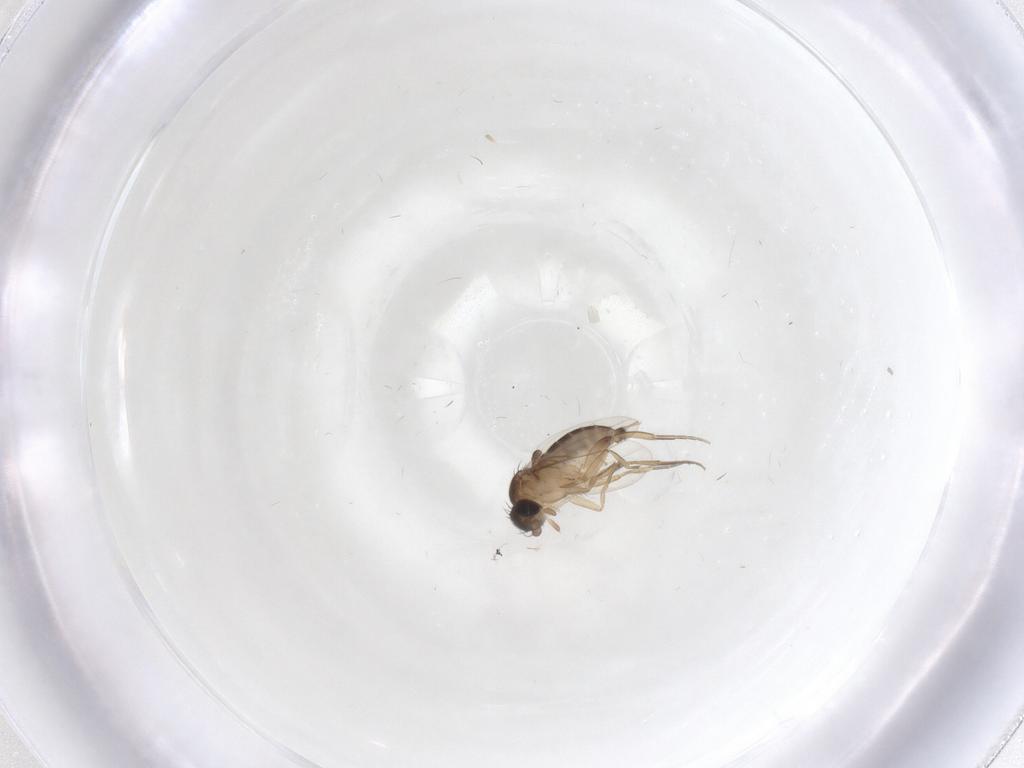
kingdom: Animalia
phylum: Arthropoda
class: Insecta
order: Diptera
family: Phoridae
